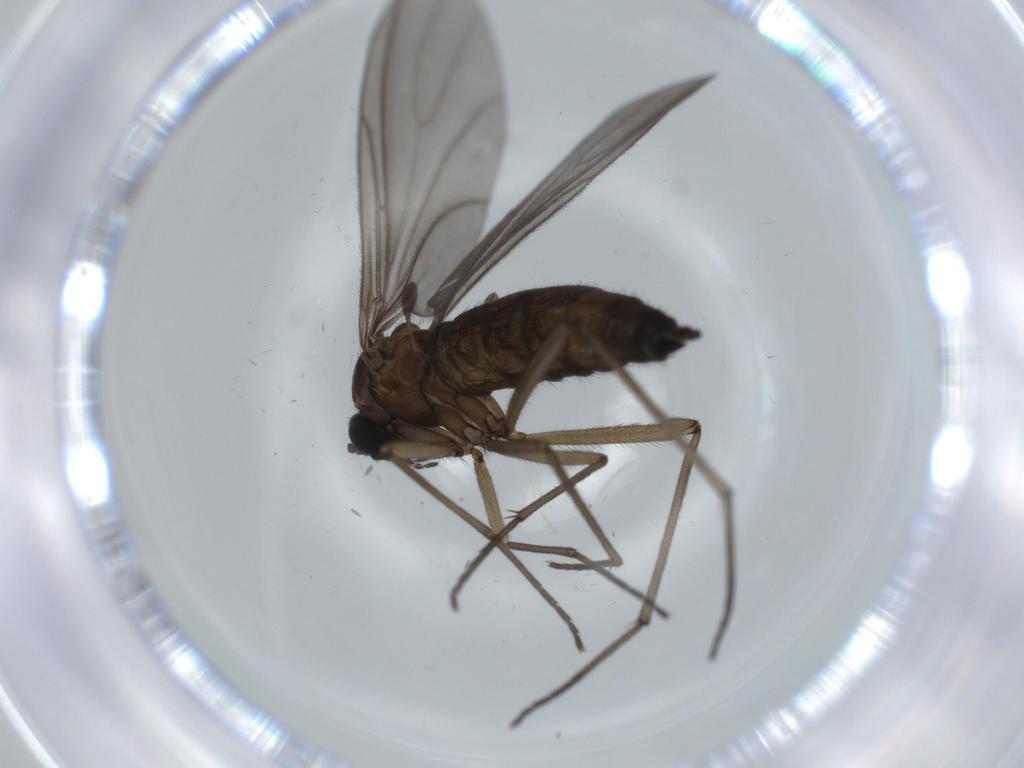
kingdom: Animalia
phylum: Arthropoda
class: Insecta
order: Diptera
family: Sciaridae
